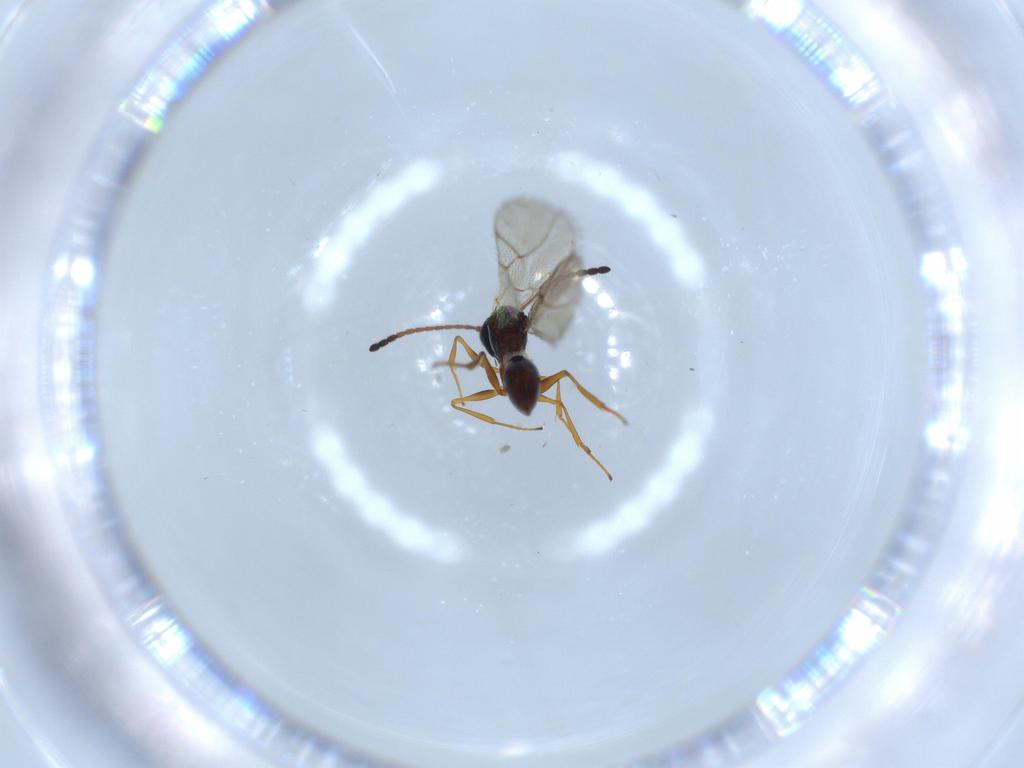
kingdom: Animalia
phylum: Arthropoda
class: Insecta
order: Hymenoptera
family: Figitidae
